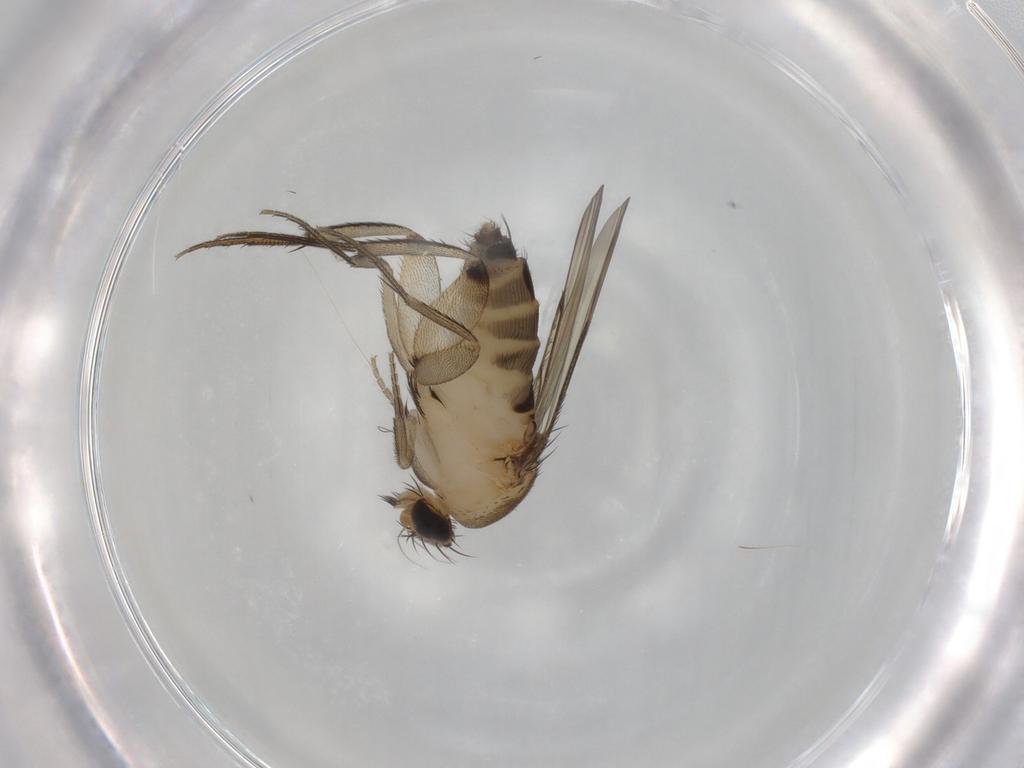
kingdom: Animalia
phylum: Arthropoda
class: Insecta
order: Diptera
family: Phoridae
